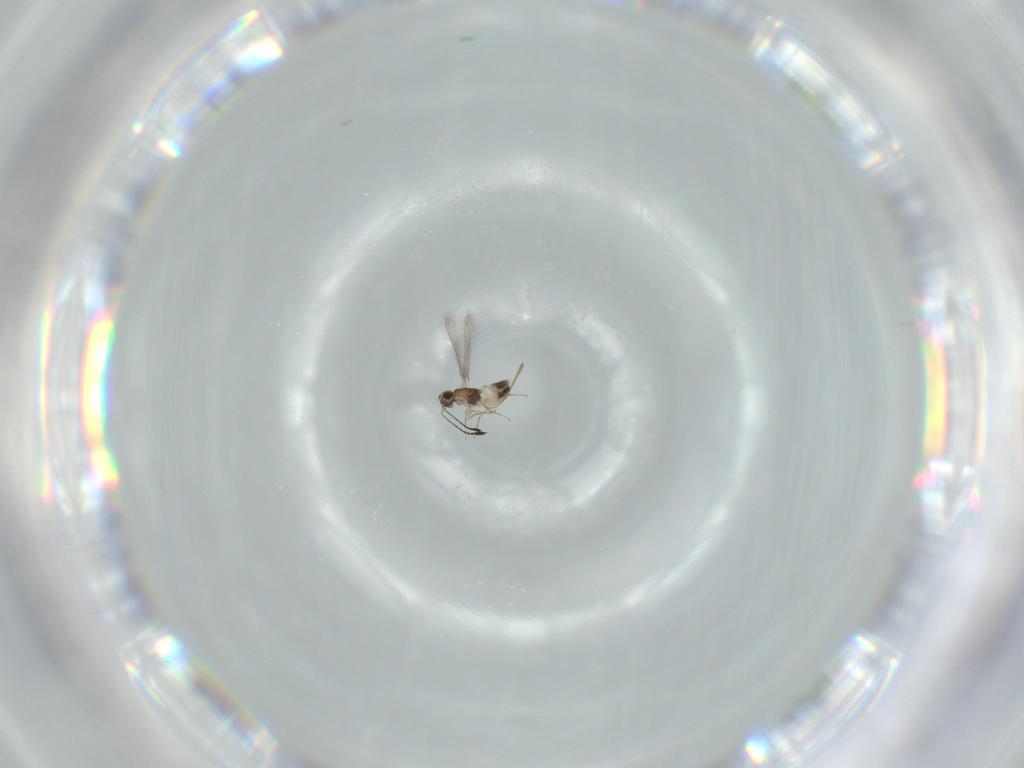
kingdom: Animalia
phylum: Arthropoda
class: Insecta
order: Hymenoptera
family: Mymaridae
